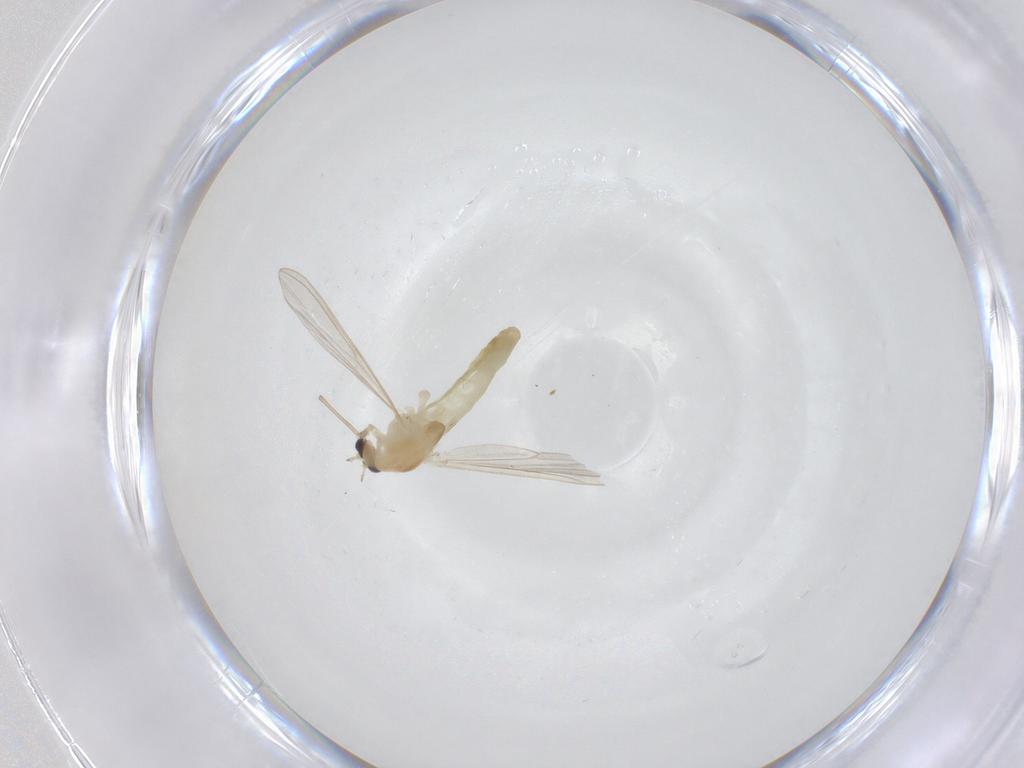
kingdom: Animalia
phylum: Arthropoda
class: Insecta
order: Diptera
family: Chironomidae
